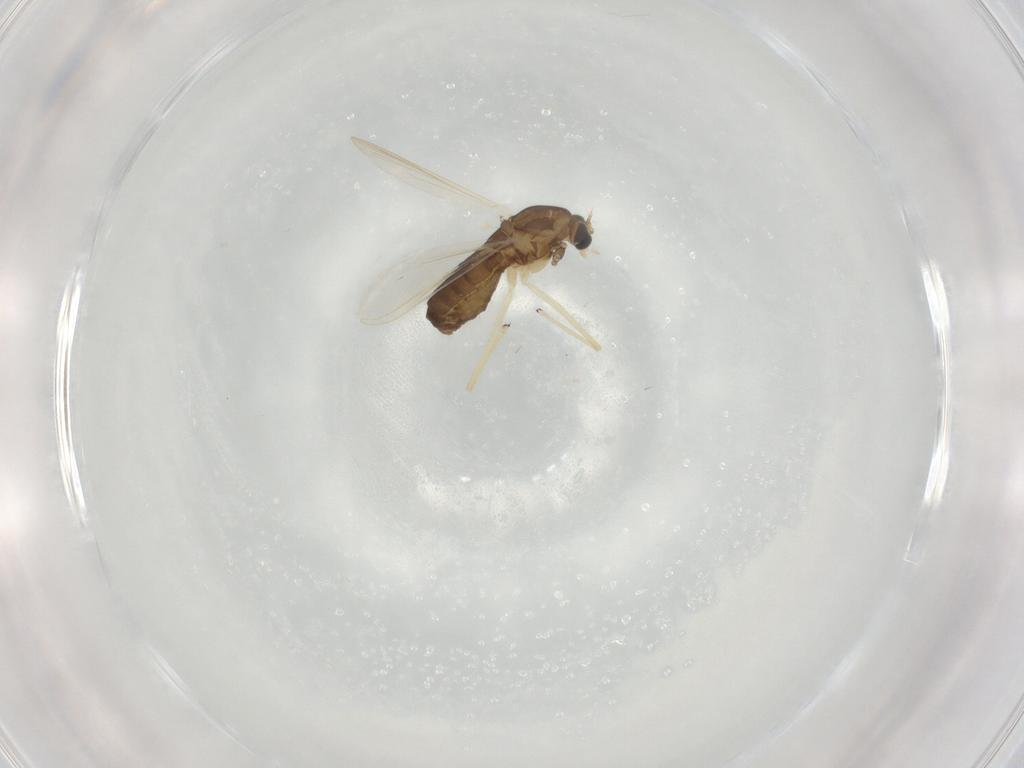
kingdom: Animalia
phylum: Arthropoda
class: Insecta
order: Diptera
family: Chironomidae
